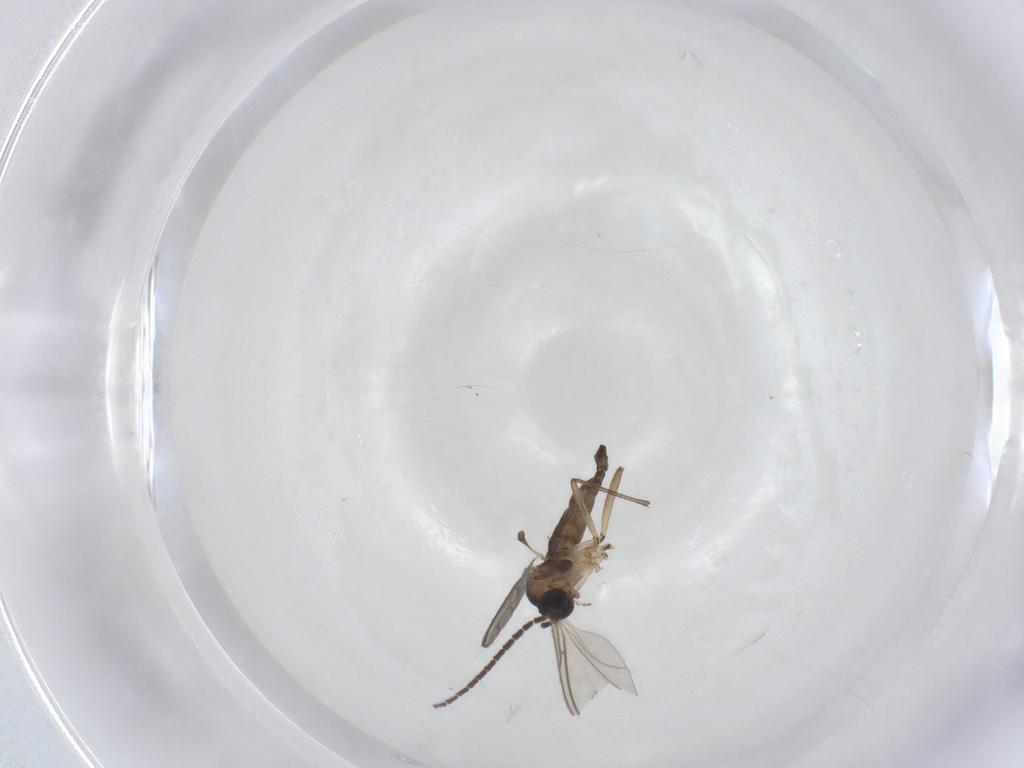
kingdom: Animalia
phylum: Arthropoda
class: Insecta
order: Diptera
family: Sciaridae
